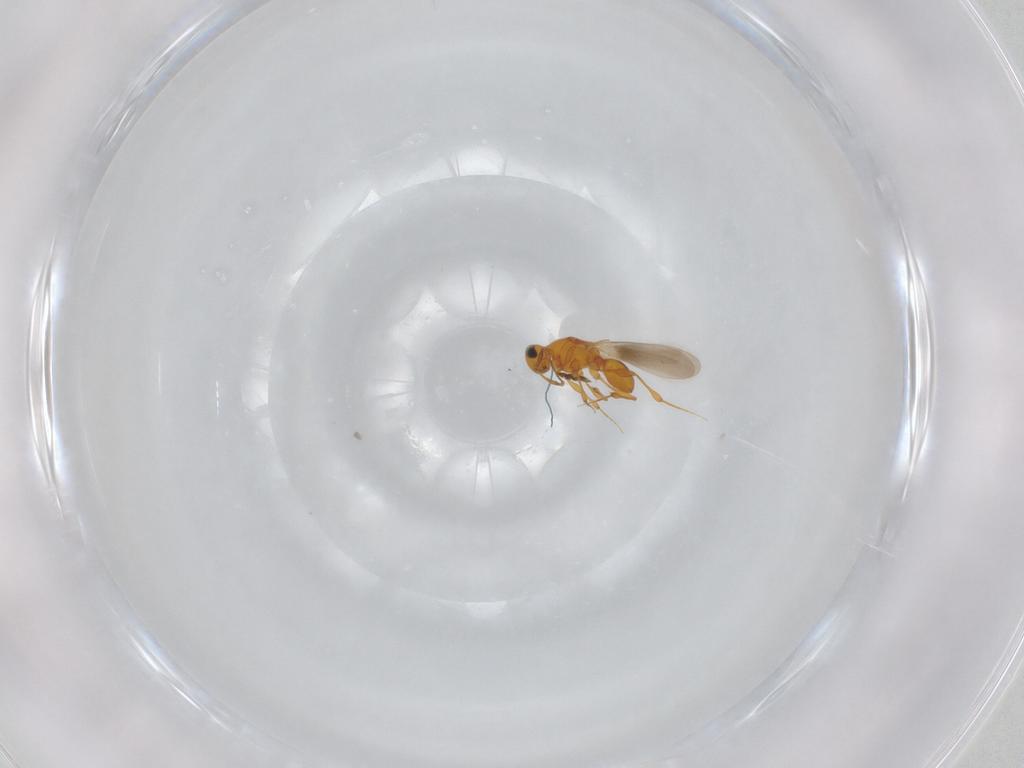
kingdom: Animalia
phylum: Arthropoda
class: Insecta
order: Hymenoptera
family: Platygastridae
